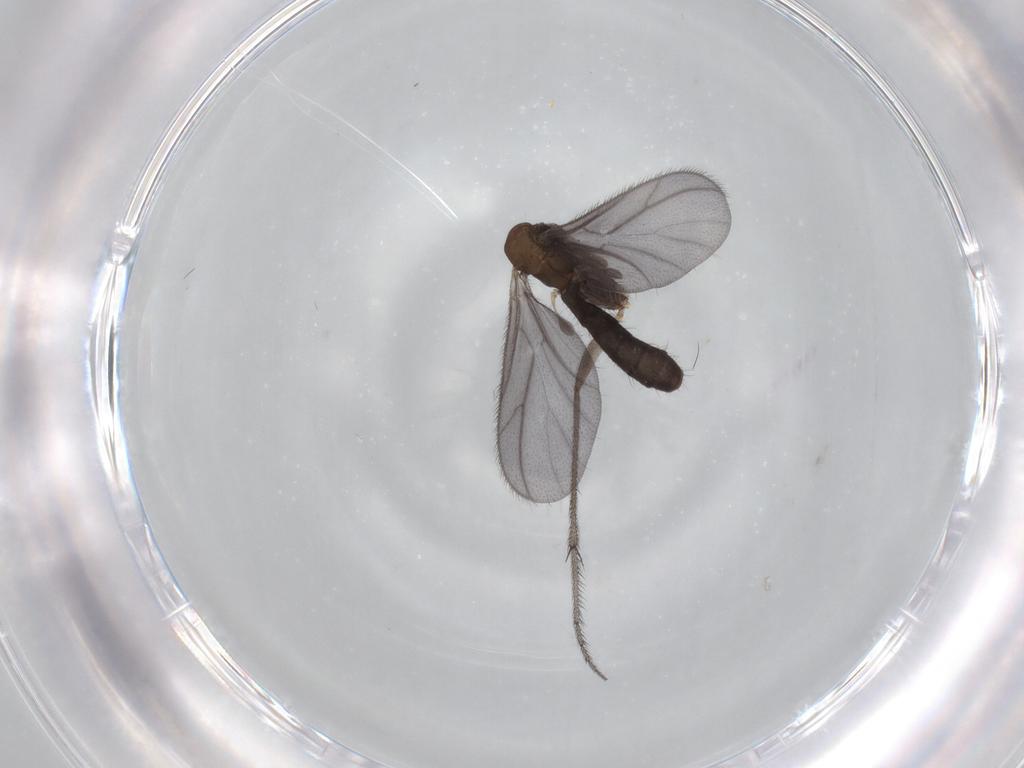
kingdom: Animalia
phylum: Arthropoda
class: Insecta
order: Diptera
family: Ditomyiidae
